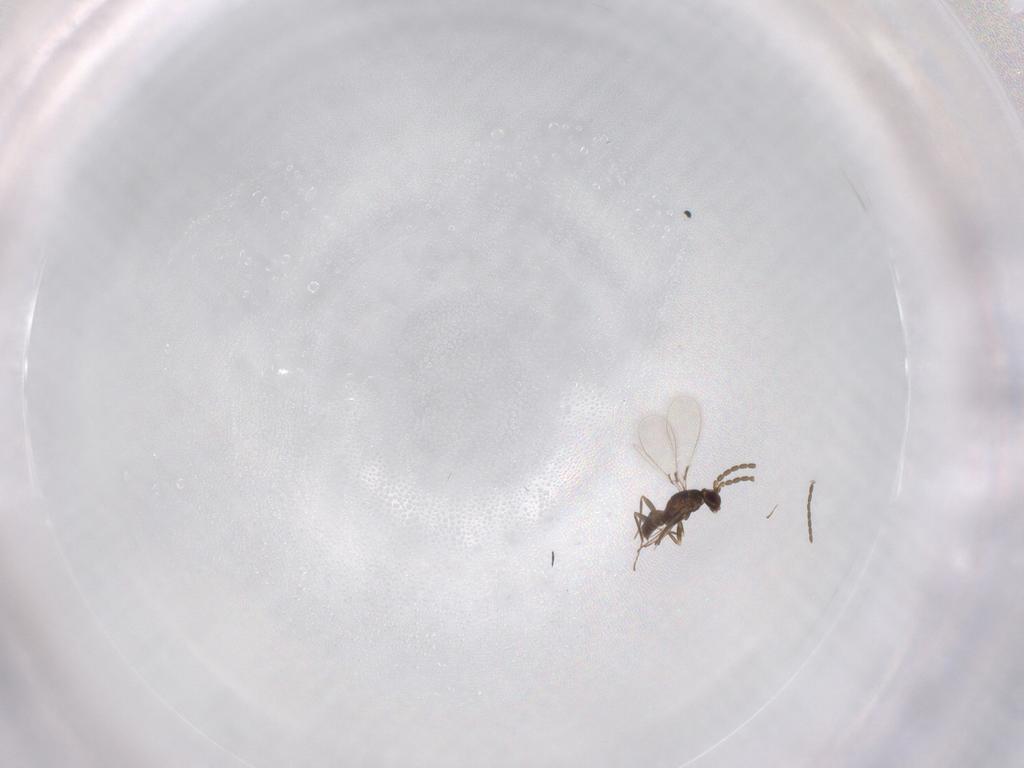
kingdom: Animalia
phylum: Arthropoda
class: Insecta
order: Hymenoptera
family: Mymaridae
